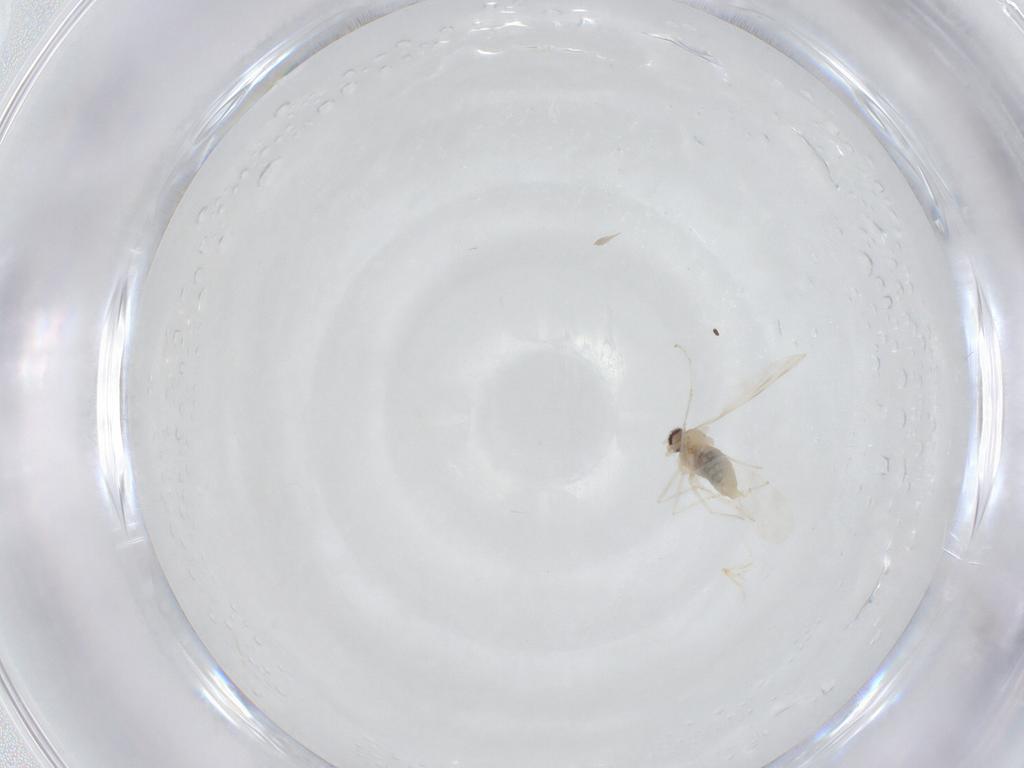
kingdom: Animalia
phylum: Arthropoda
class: Insecta
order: Diptera
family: Cecidomyiidae
